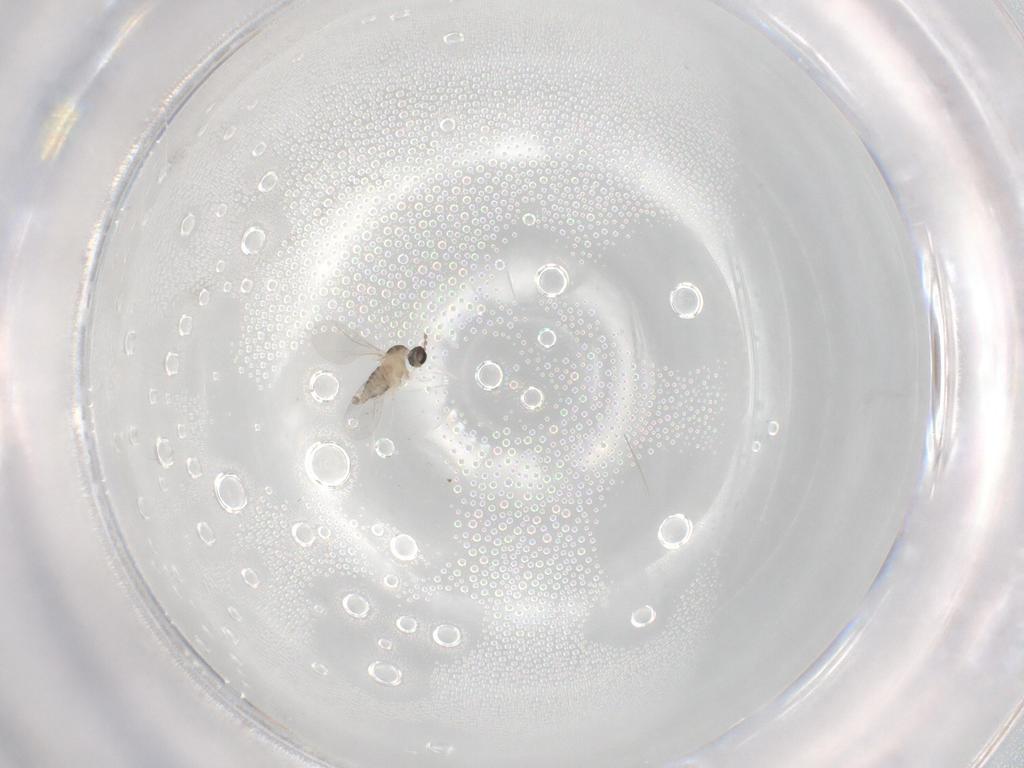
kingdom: Animalia
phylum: Arthropoda
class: Insecta
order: Diptera
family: Cecidomyiidae
